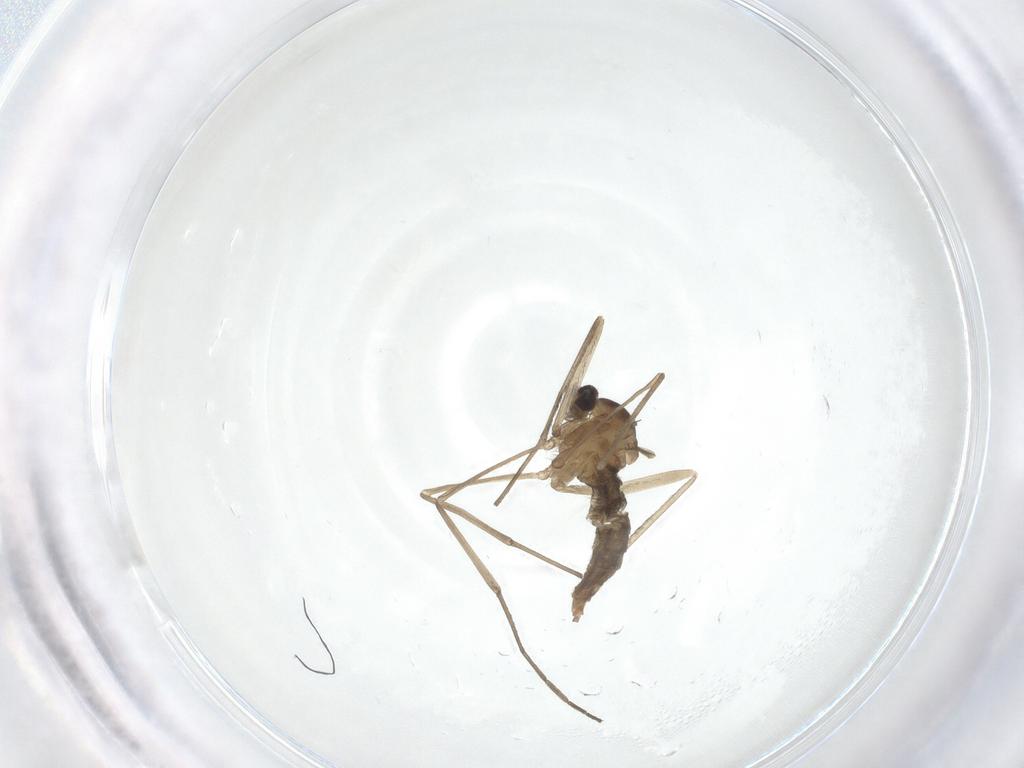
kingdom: Animalia
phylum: Arthropoda
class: Insecta
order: Diptera
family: Cecidomyiidae
